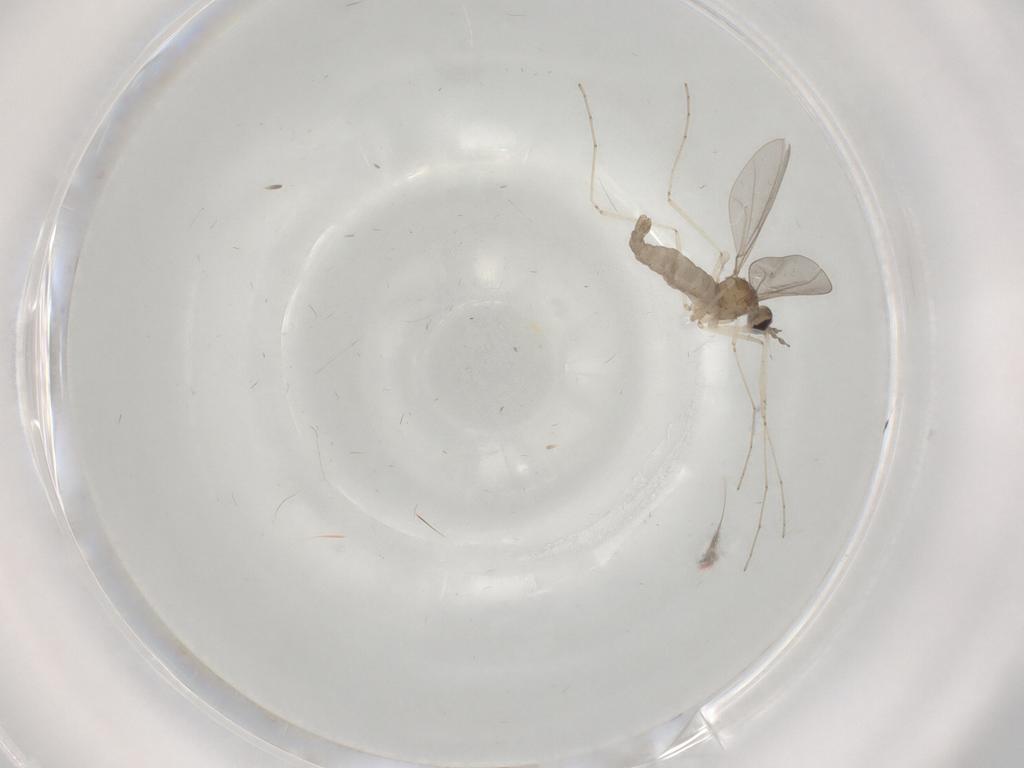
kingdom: Animalia
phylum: Arthropoda
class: Insecta
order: Diptera
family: Cecidomyiidae
